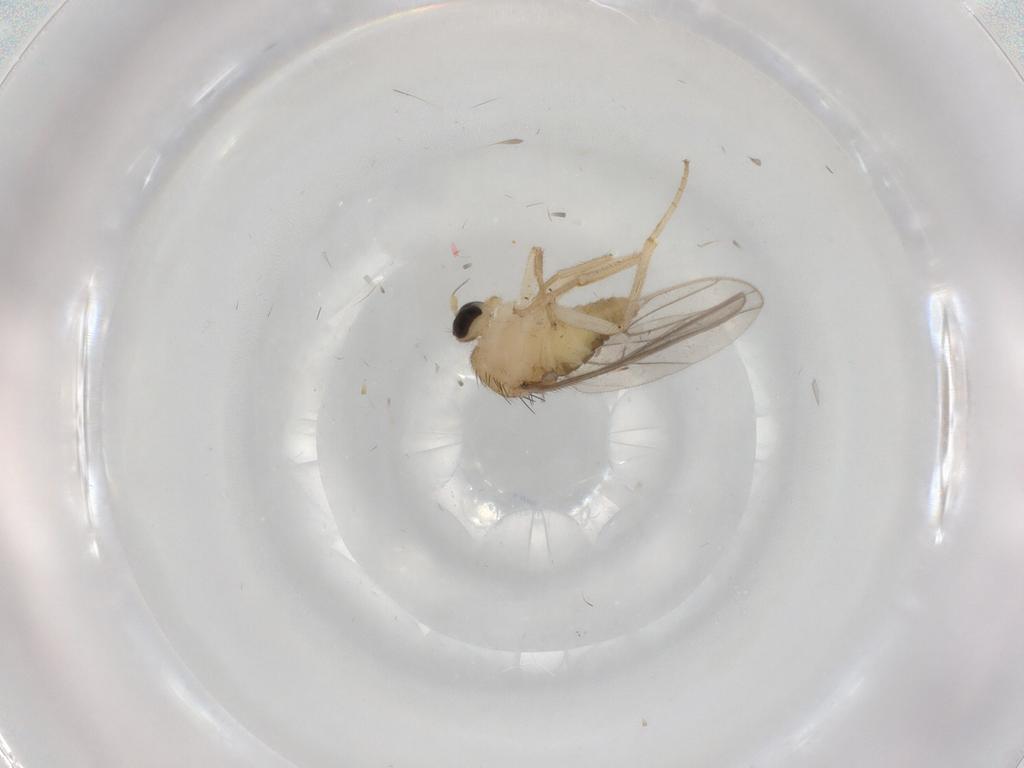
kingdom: Animalia
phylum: Arthropoda
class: Insecta
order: Diptera
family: Hybotidae
